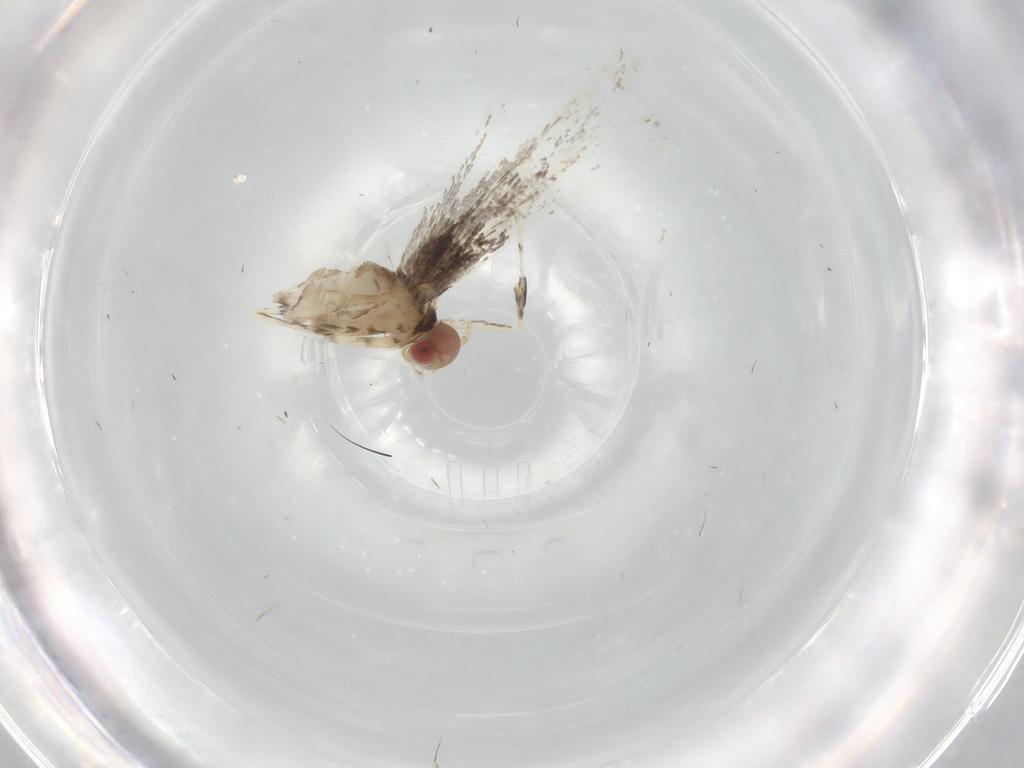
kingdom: Animalia
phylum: Arthropoda
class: Insecta
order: Lepidoptera
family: Gracillariidae
